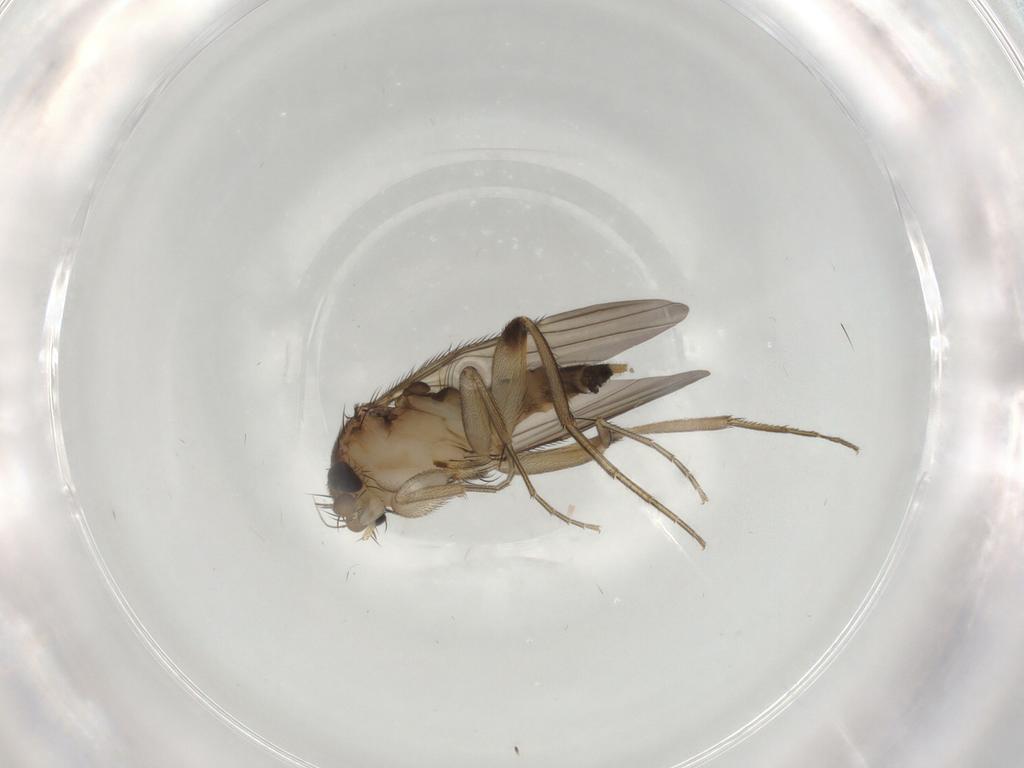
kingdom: Animalia
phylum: Arthropoda
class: Insecta
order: Diptera
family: Phoridae
